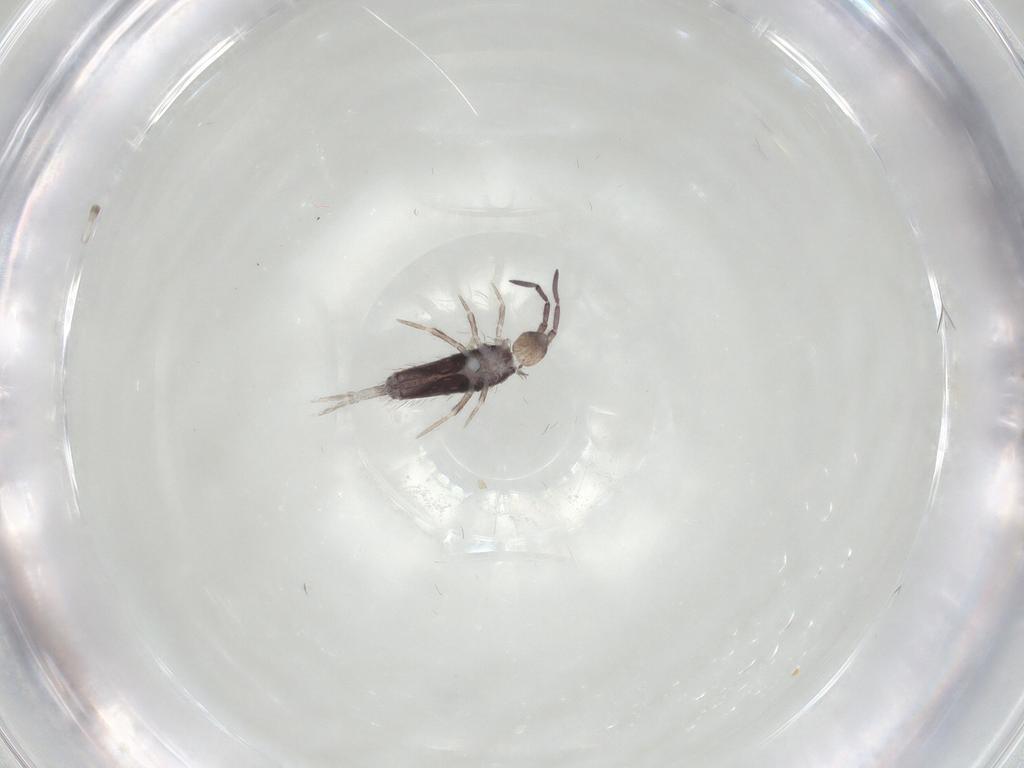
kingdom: Animalia
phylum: Arthropoda
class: Collembola
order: Entomobryomorpha
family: Entomobryidae
